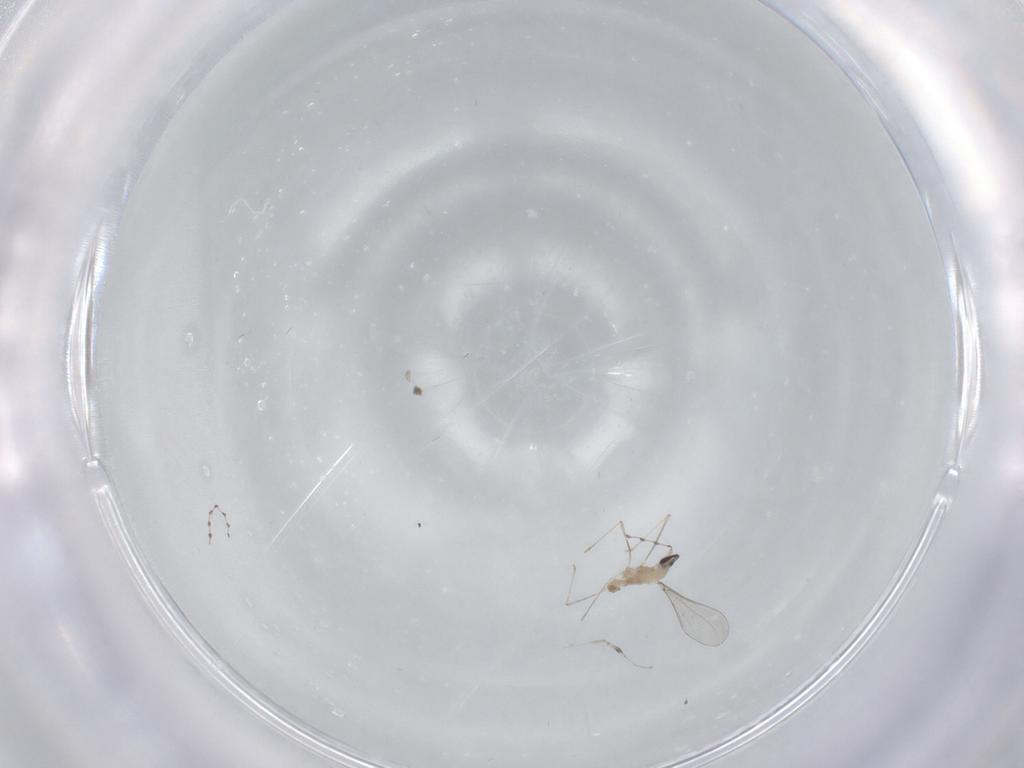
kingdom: Animalia
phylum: Arthropoda
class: Insecta
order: Diptera
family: Cecidomyiidae
